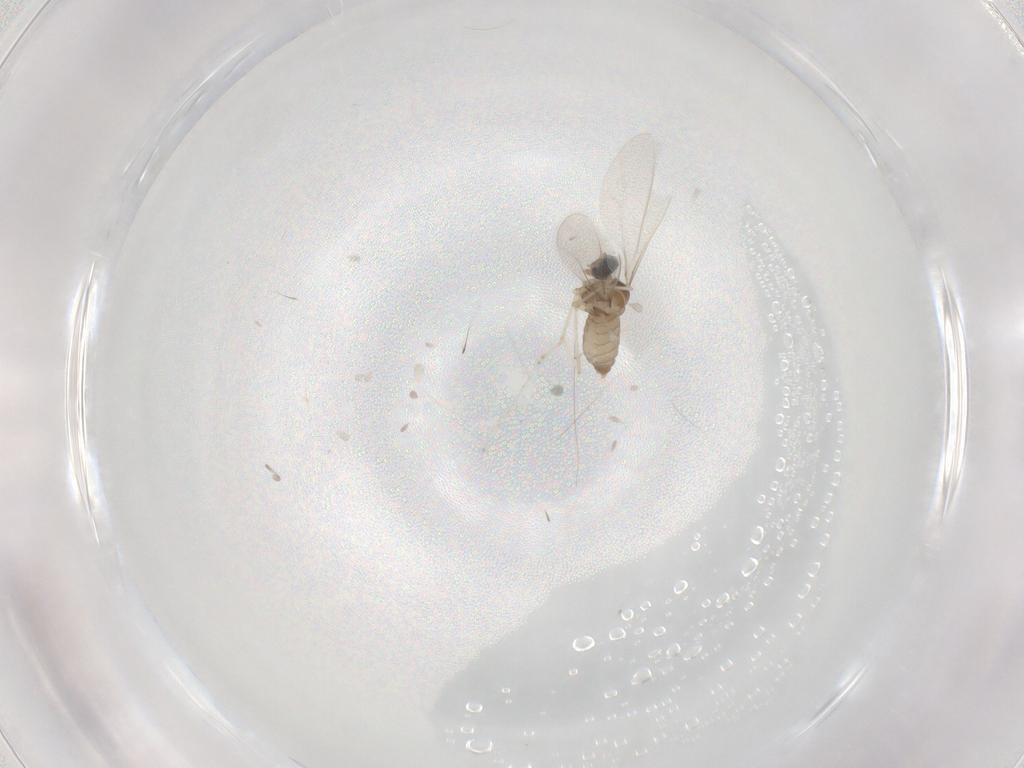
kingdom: Animalia
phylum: Arthropoda
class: Insecta
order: Diptera
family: Cecidomyiidae
